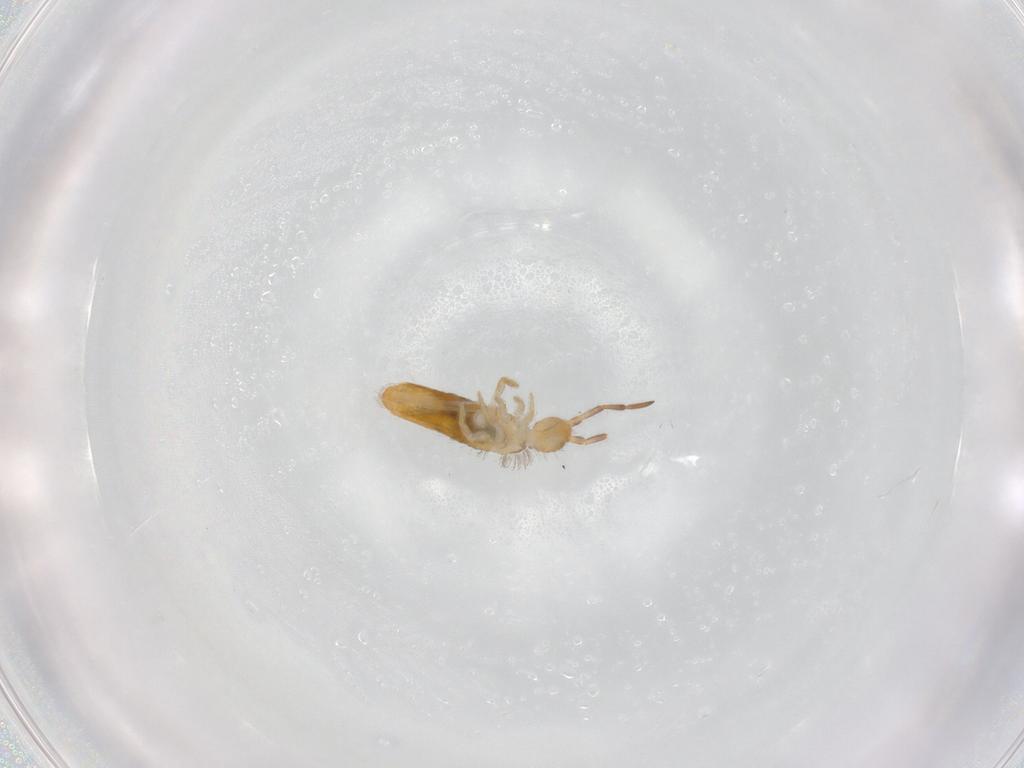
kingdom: Animalia
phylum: Arthropoda
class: Collembola
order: Entomobryomorpha
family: Entomobryidae
